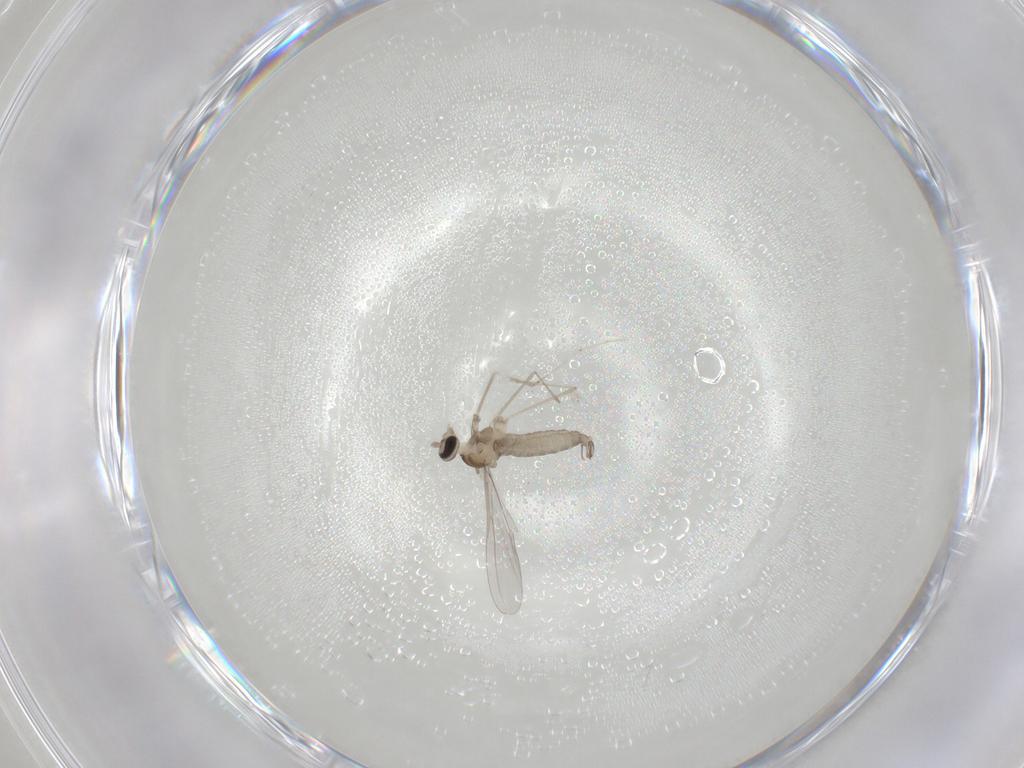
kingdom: Animalia
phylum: Arthropoda
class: Insecta
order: Diptera
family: Cecidomyiidae
